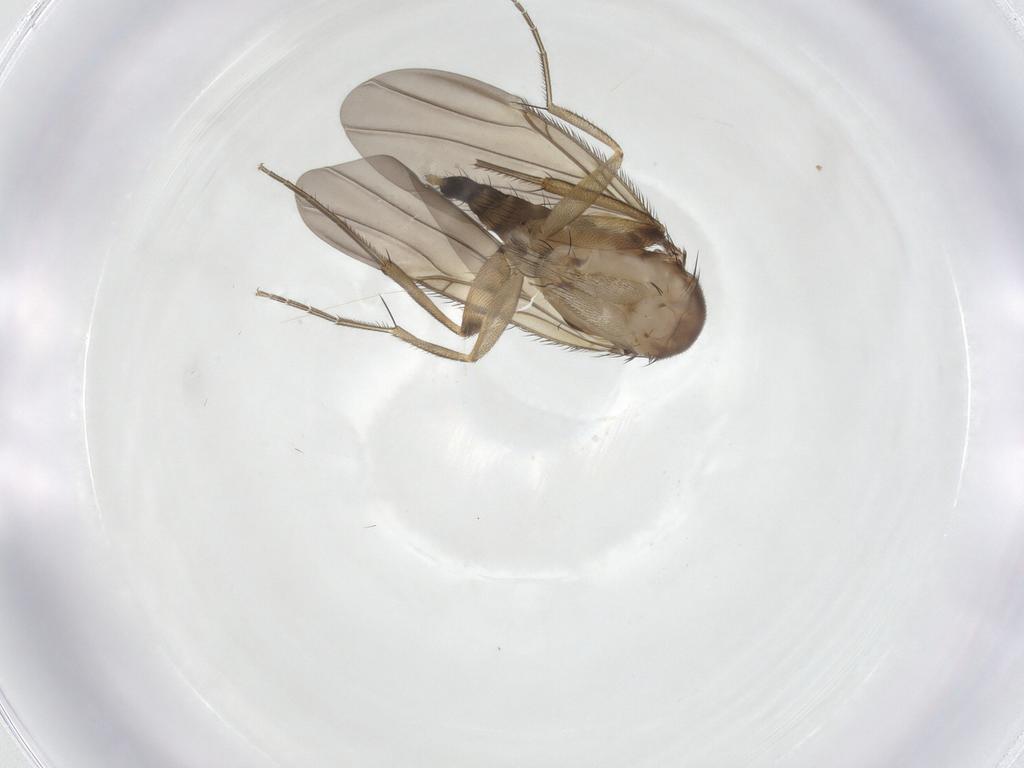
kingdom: Animalia
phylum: Arthropoda
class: Insecta
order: Diptera
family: Phoridae
